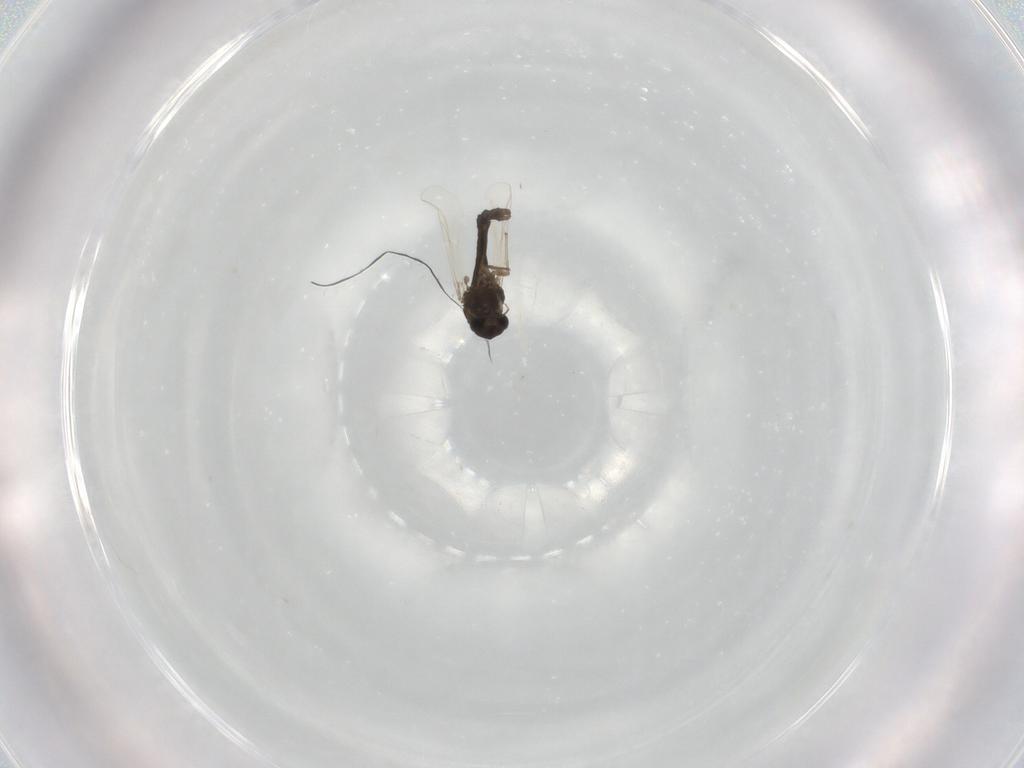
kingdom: Animalia
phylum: Arthropoda
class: Insecta
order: Diptera
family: Chironomidae
